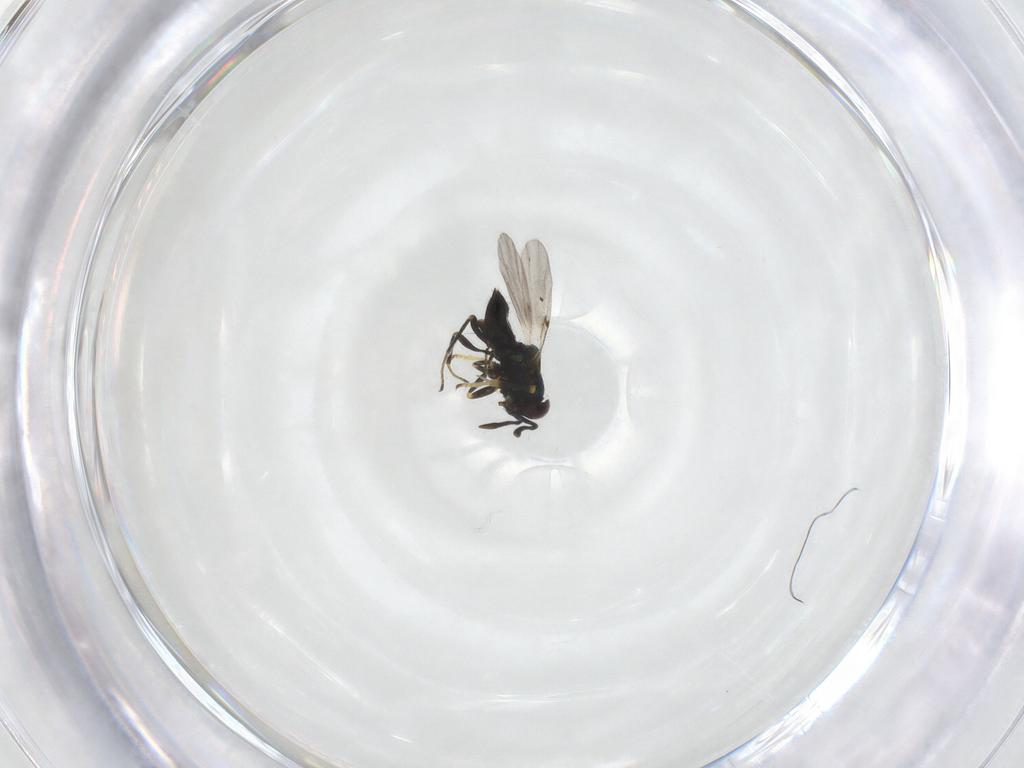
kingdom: Animalia
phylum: Arthropoda
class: Insecta
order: Hymenoptera
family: Encyrtidae
